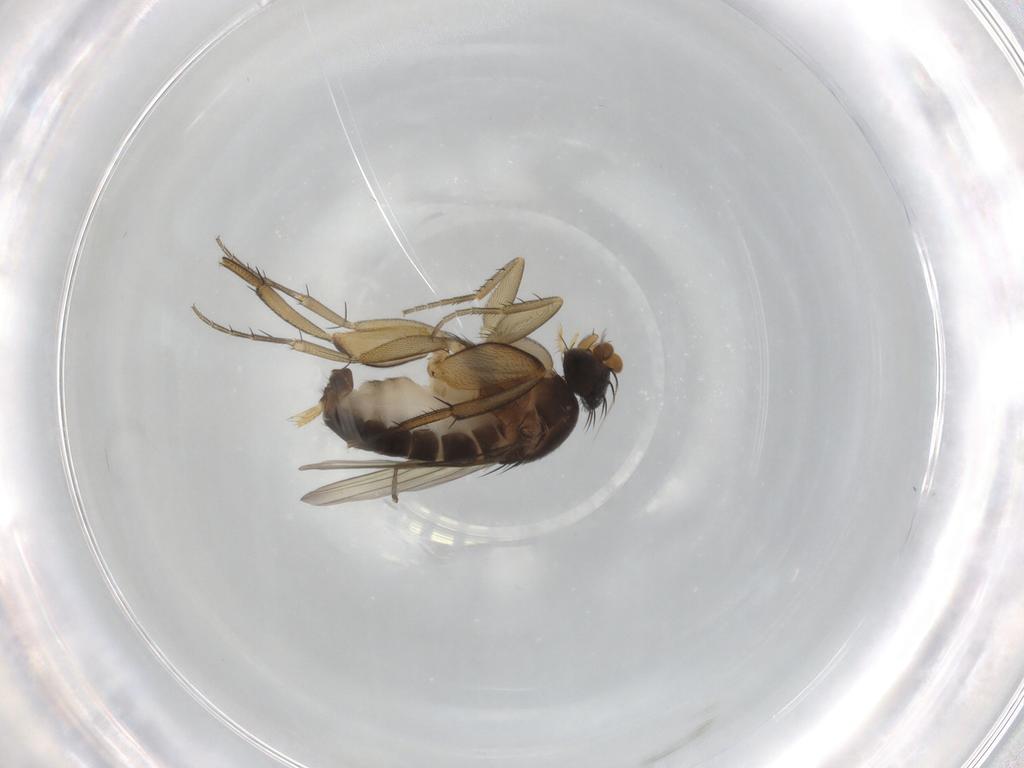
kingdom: Animalia
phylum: Arthropoda
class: Insecta
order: Diptera
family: Phoridae
